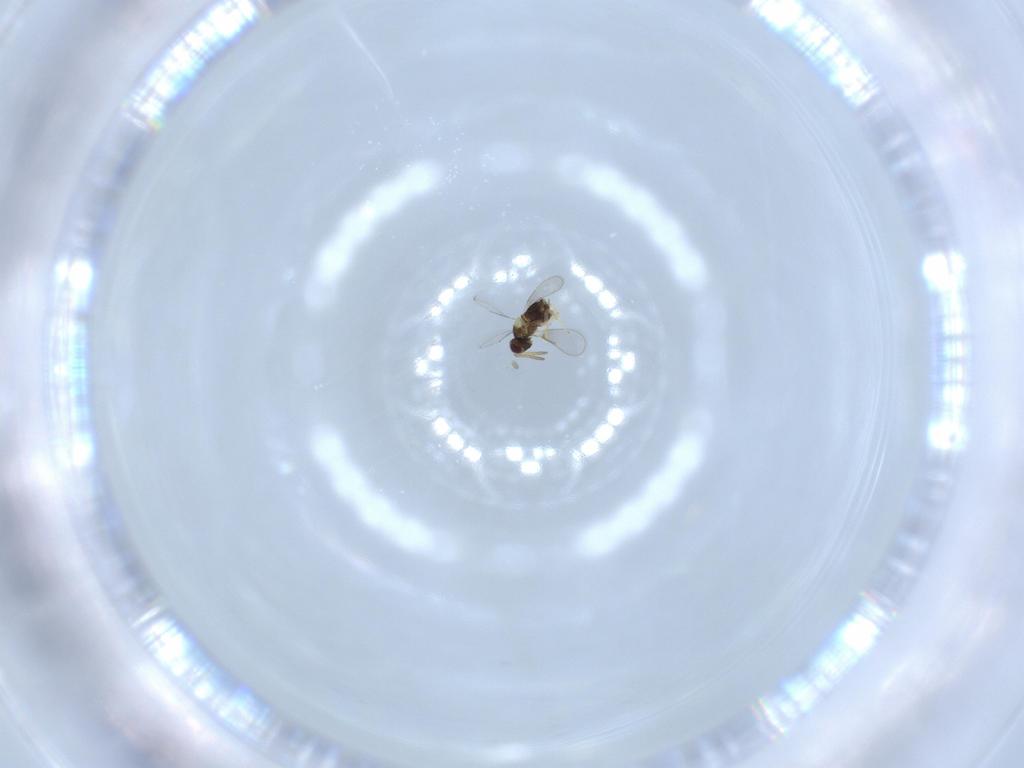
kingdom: Animalia
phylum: Arthropoda
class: Insecta
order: Hymenoptera
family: Aphelinidae
